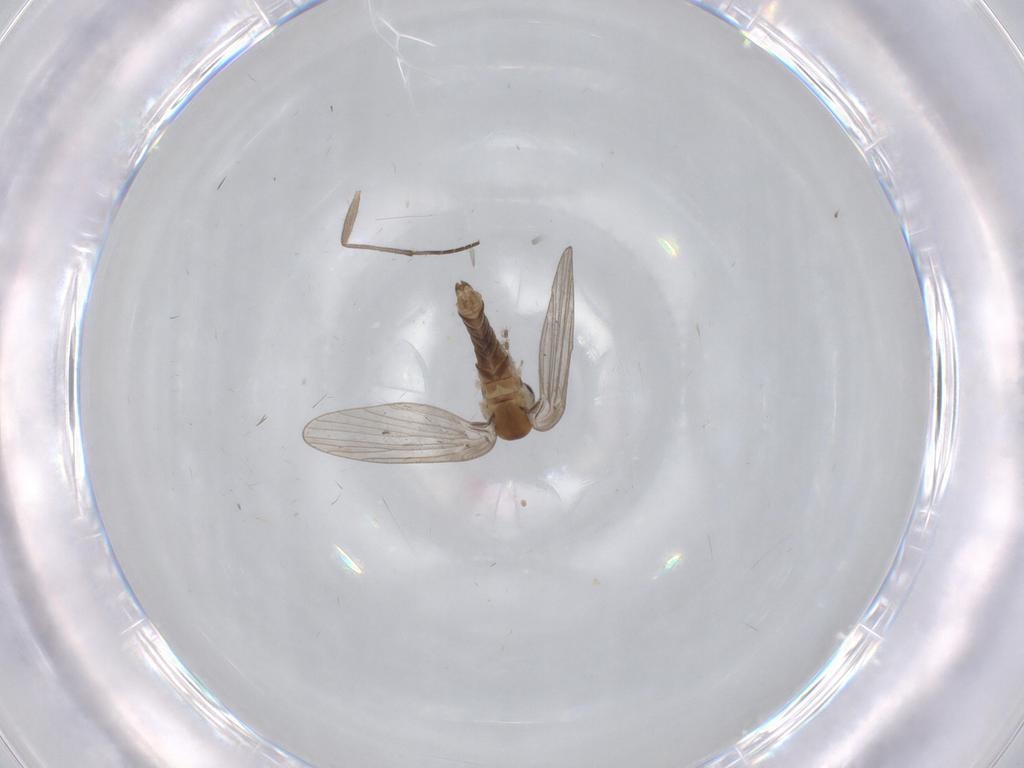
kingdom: Animalia
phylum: Arthropoda
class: Insecta
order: Diptera
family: Psychodidae
